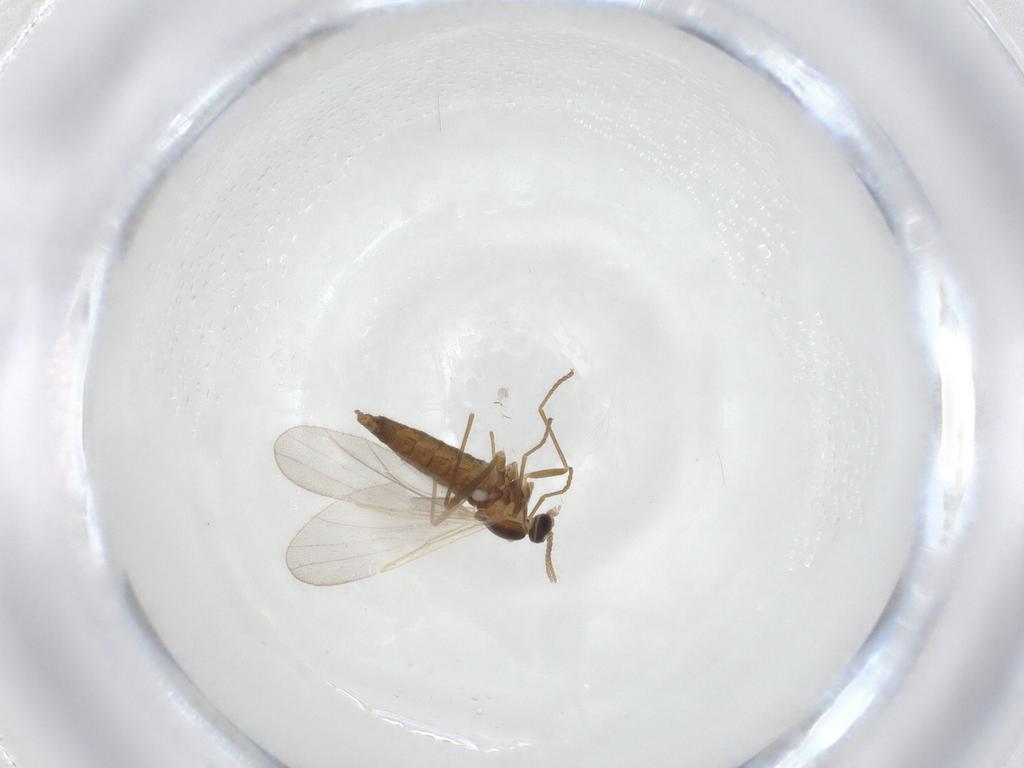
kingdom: Animalia
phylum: Arthropoda
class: Insecta
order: Diptera
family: Cecidomyiidae
